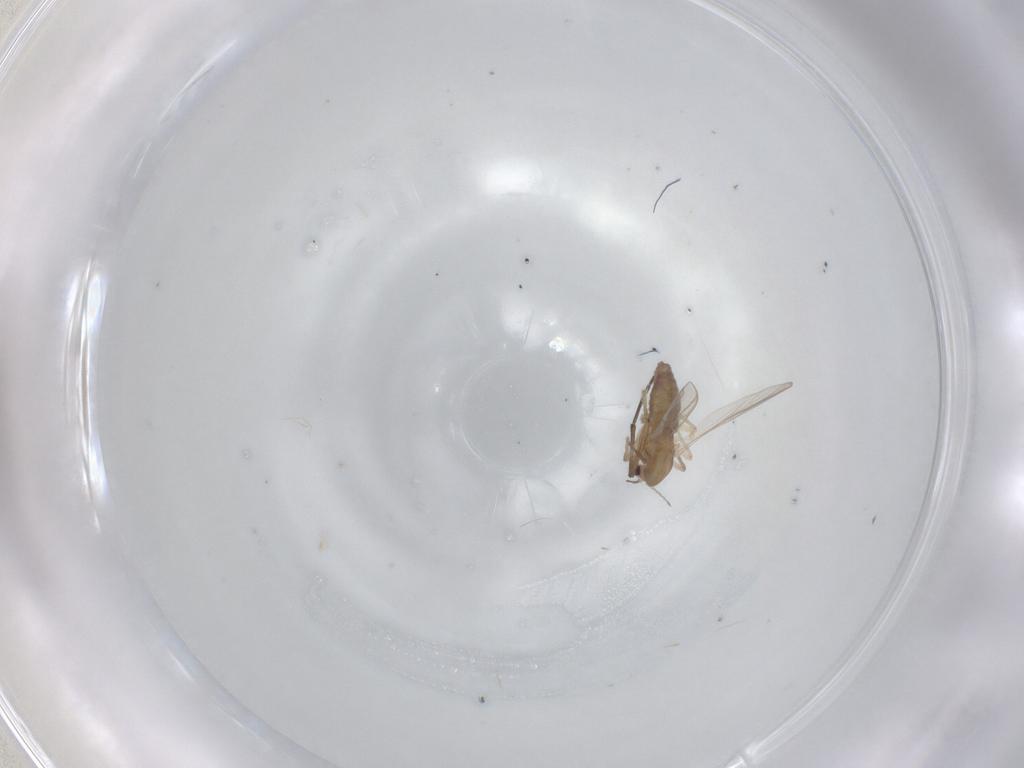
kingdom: Animalia
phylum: Arthropoda
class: Insecta
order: Diptera
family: Chironomidae
